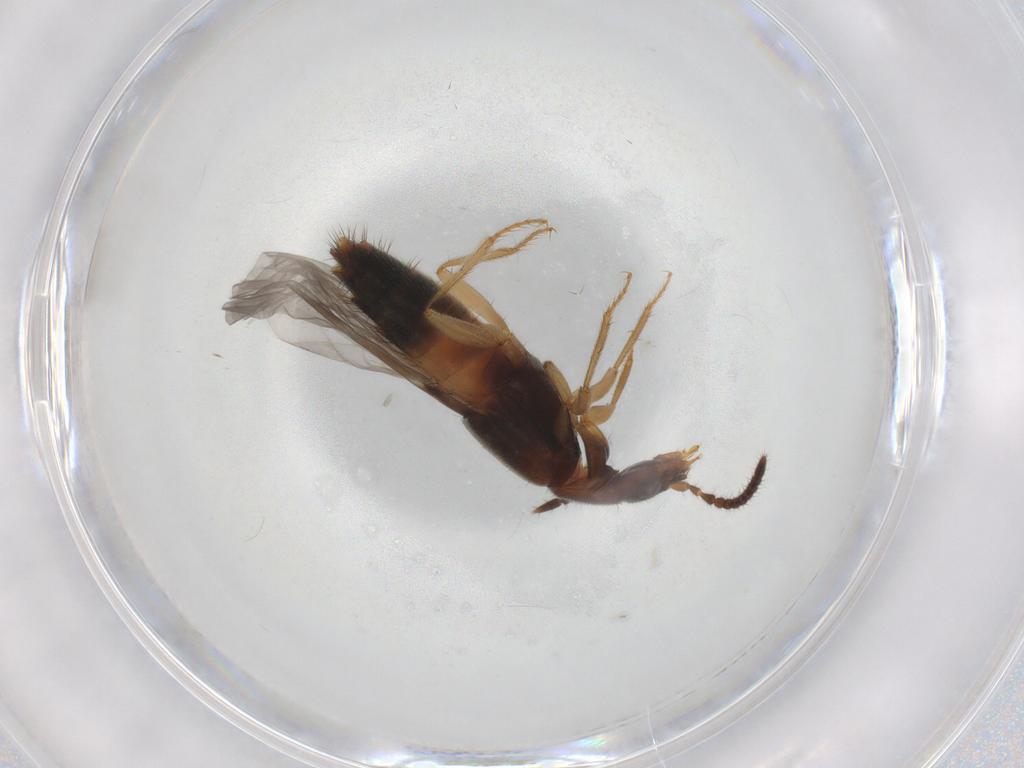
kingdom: Animalia
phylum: Arthropoda
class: Insecta
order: Coleoptera
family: Staphylinidae
